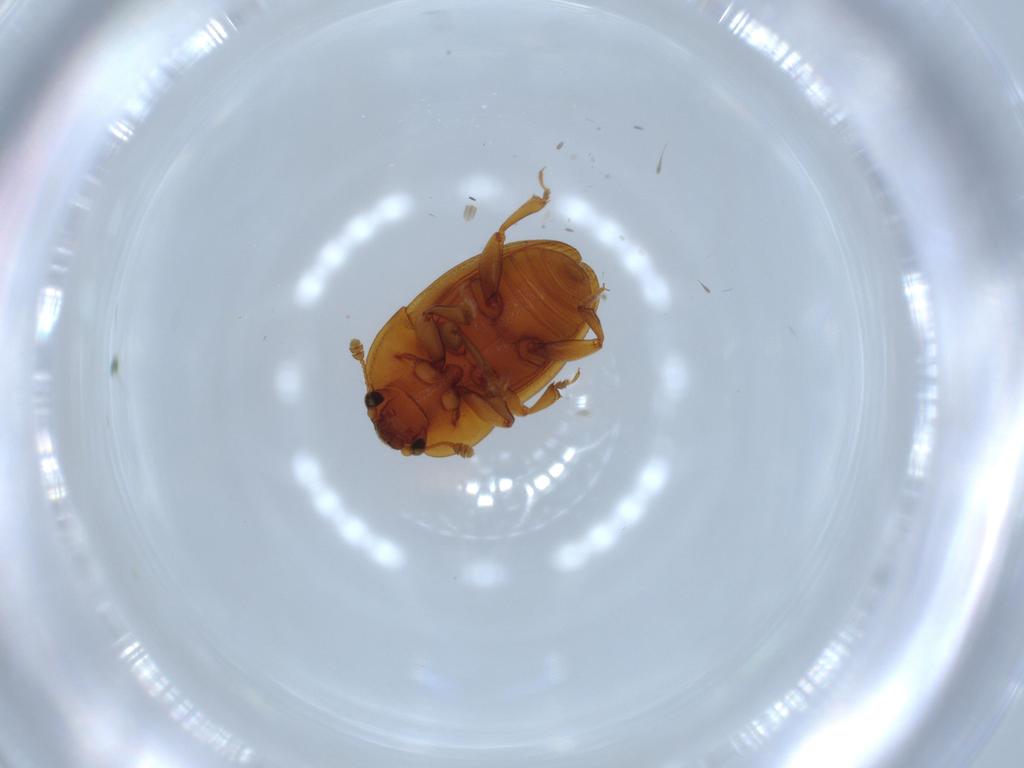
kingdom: Animalia
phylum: Arthropoda
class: Insecta
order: Coleoptera
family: Nitidulidae
